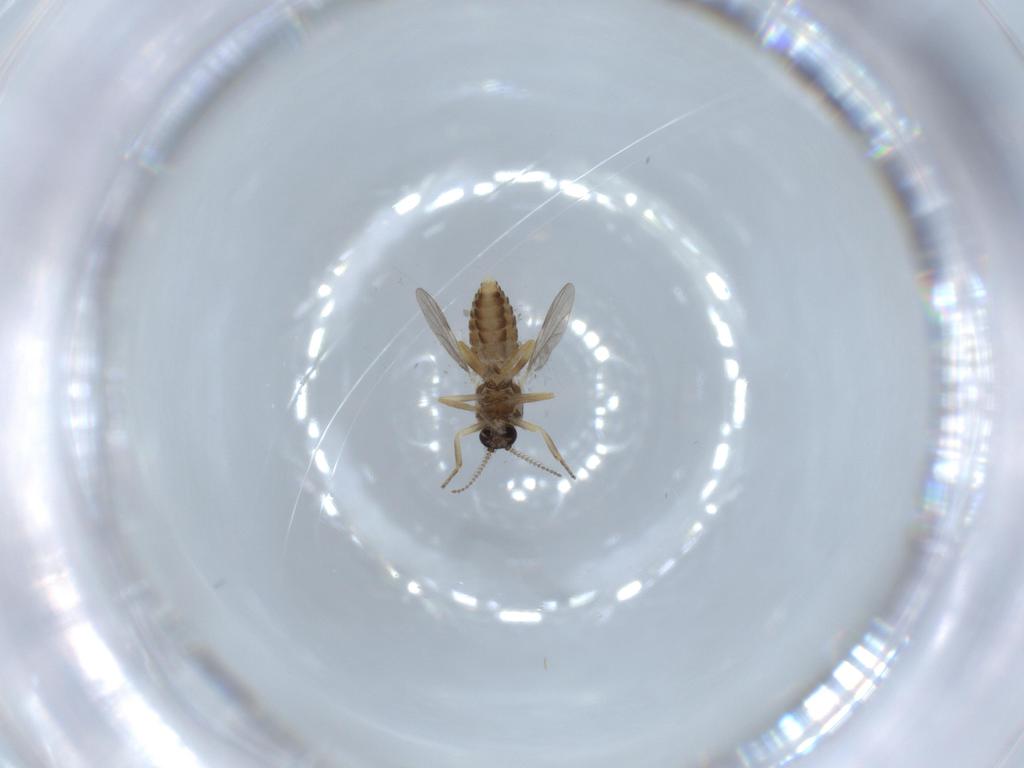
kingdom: Animalia
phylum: Arthropoda
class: Insecta
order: Diptera
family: Ceratopogonidae
